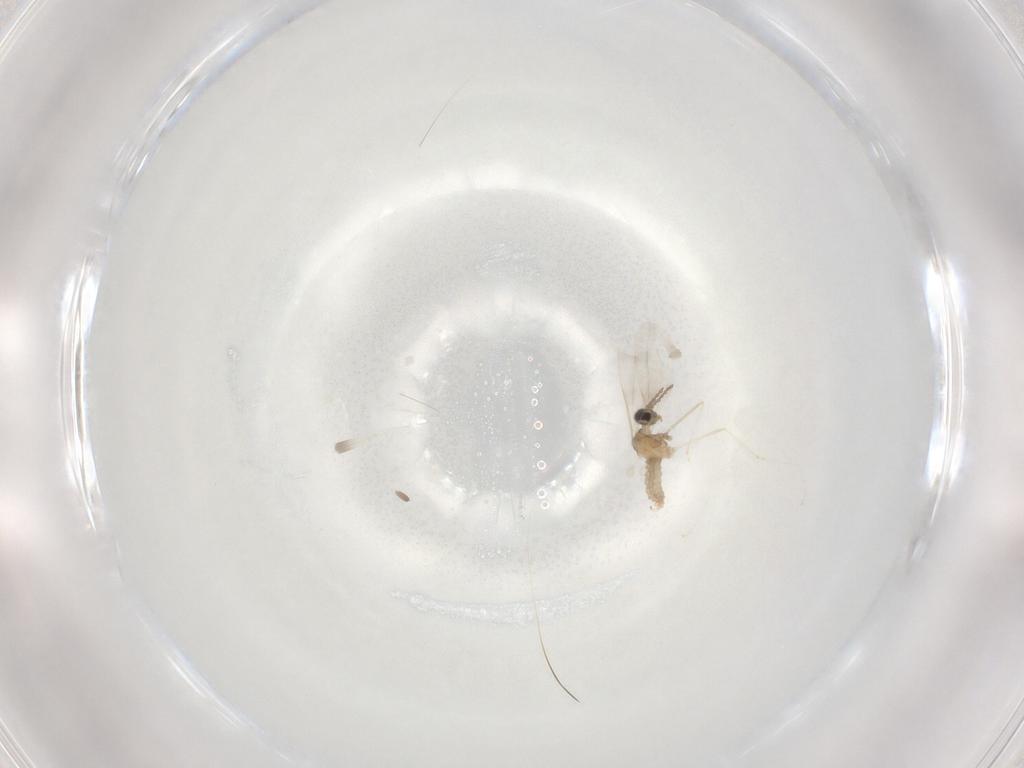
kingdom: Animalia
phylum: Arthropoda
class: Insecta
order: Diptera
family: Cecidomyiidae
